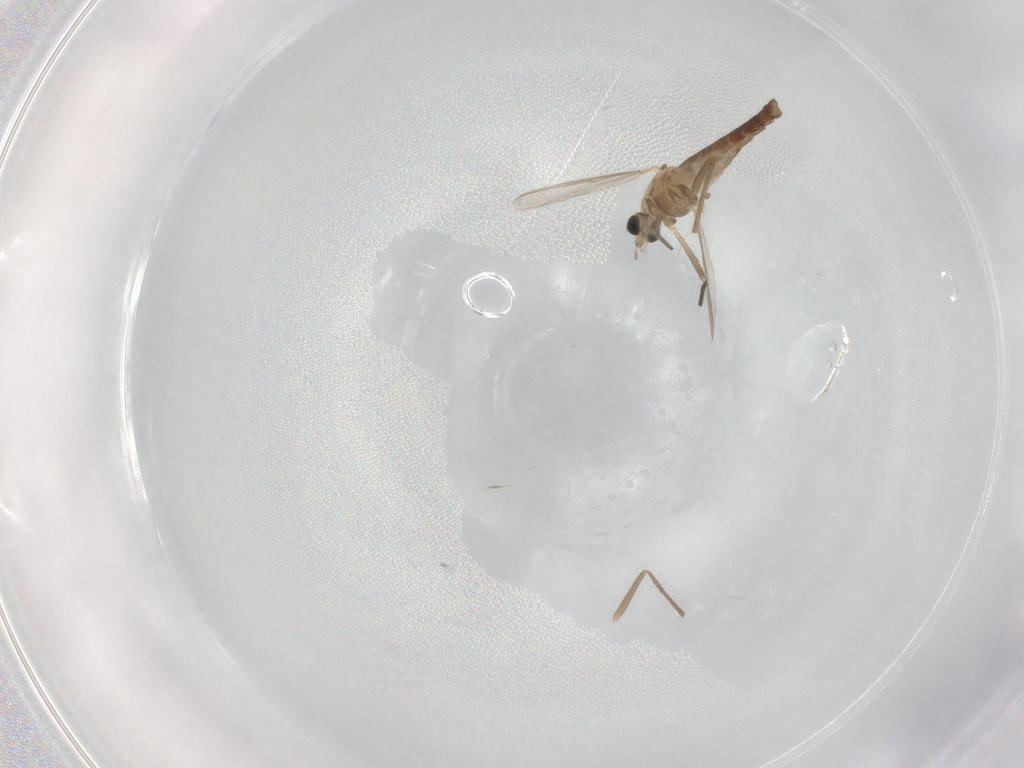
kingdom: Animalia
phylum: Arthropoda
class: Insecta
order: Diptera
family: Chironomidae
